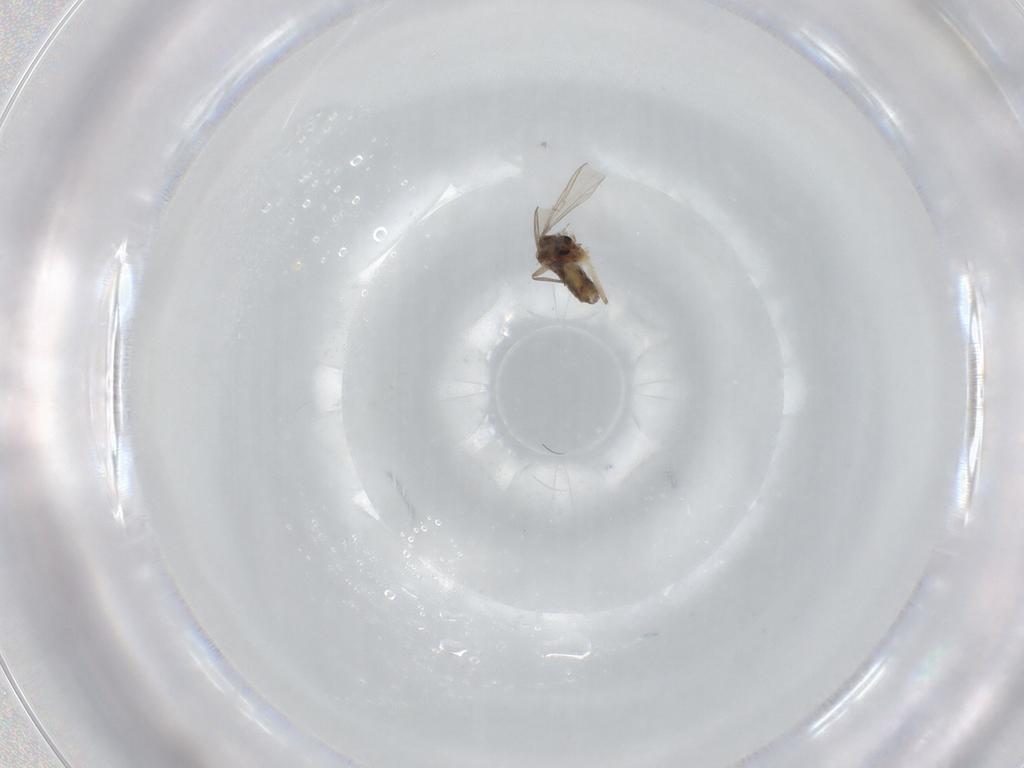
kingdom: Animalia
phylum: Arthropoda
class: Insecta
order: Diptera
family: Chironomidae
